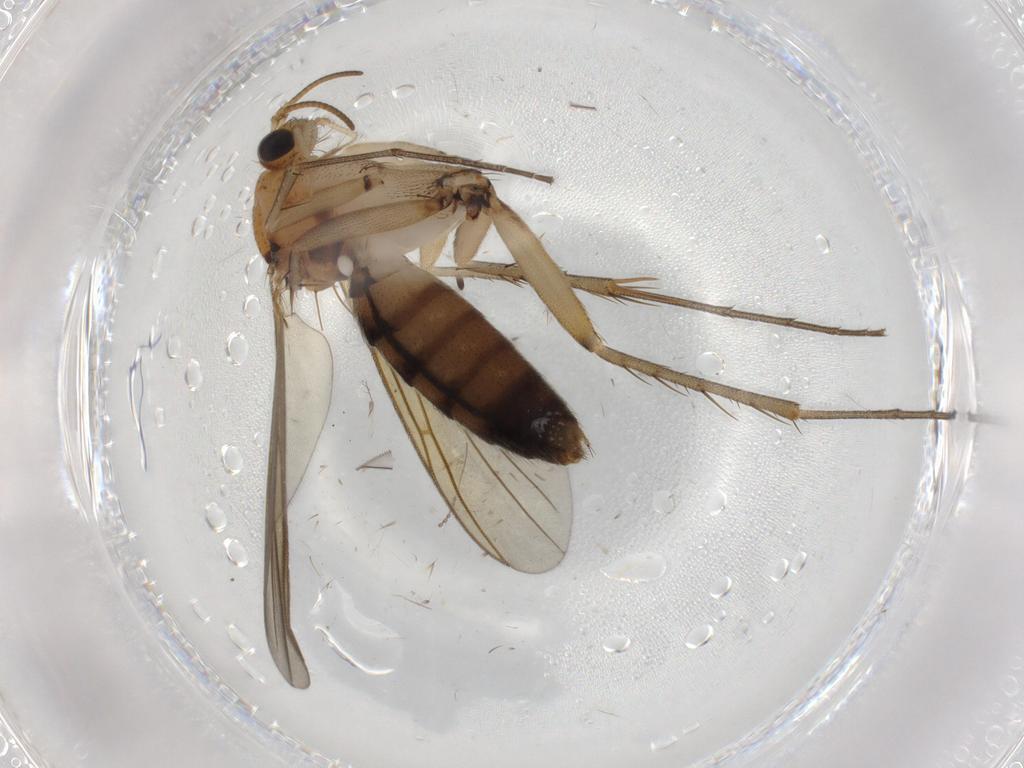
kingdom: Animalia
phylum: Arthropoda
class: Insecta
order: Diptera
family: Mycetophilidae
